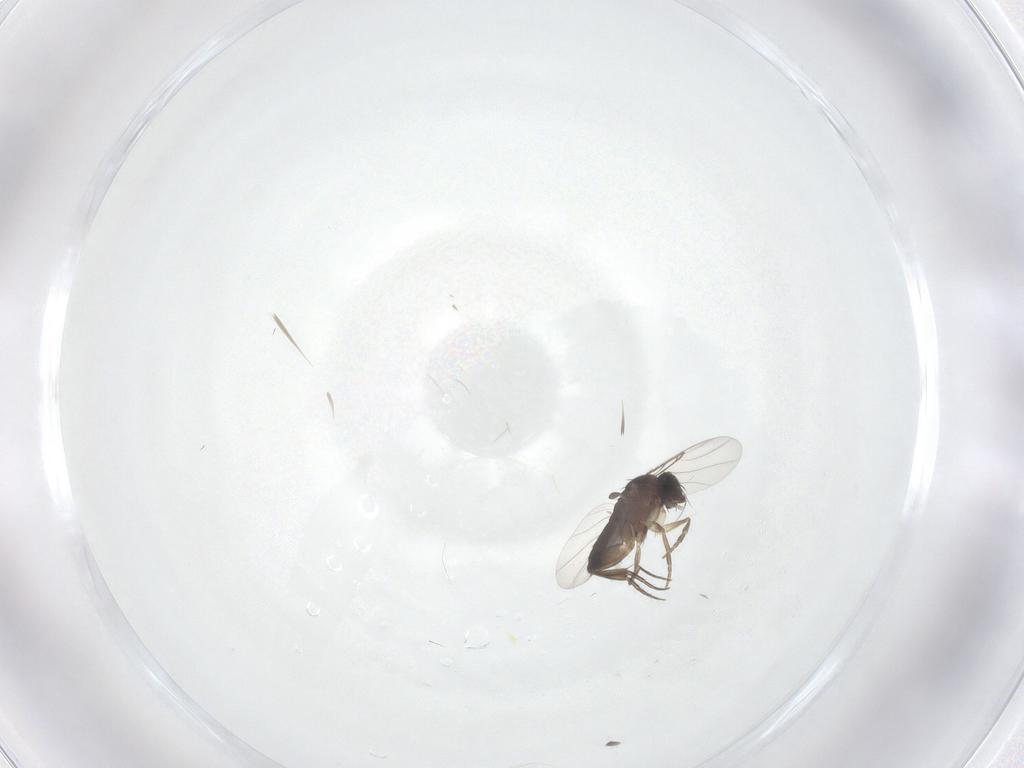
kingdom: Animalia
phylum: Arthropoda
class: Insecta
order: Diptera
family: Phoridae
